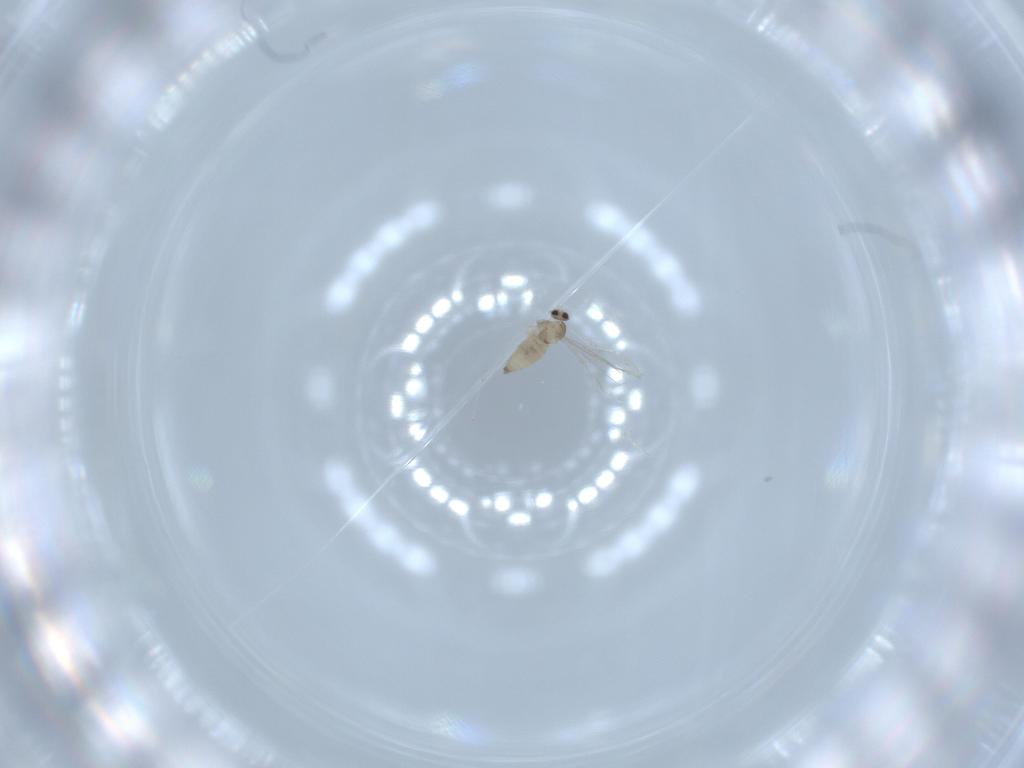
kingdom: Animalia
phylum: Arthropoda
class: Insecta
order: Diptera
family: Cecidomyiidae
